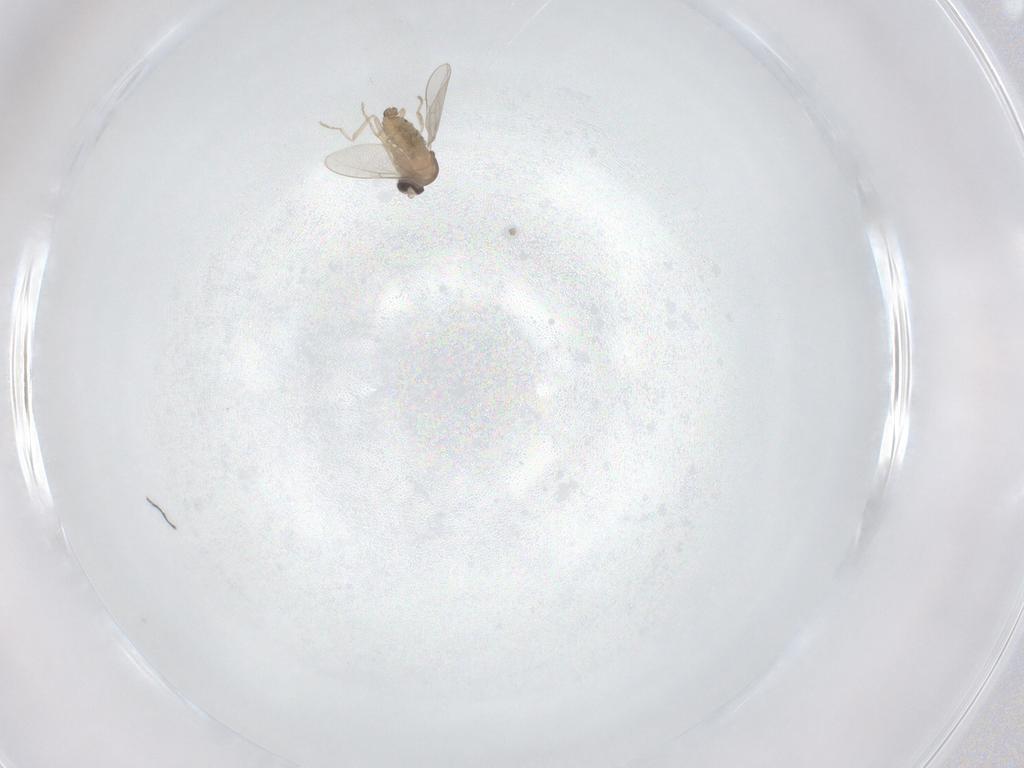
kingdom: Animalia
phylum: Arthropoda
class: Insecta
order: Diptera
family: Cecidomyiidae
